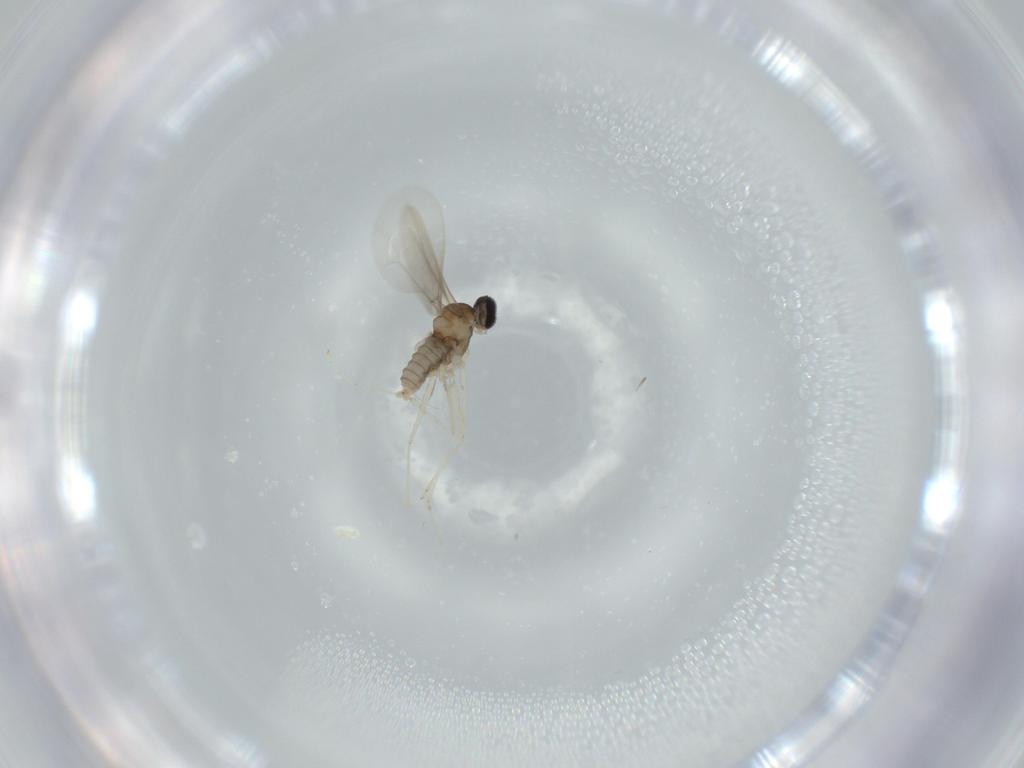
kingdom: Animalia
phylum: Arthropoda
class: Insecta
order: Diptera
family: Cecidomyiidae
